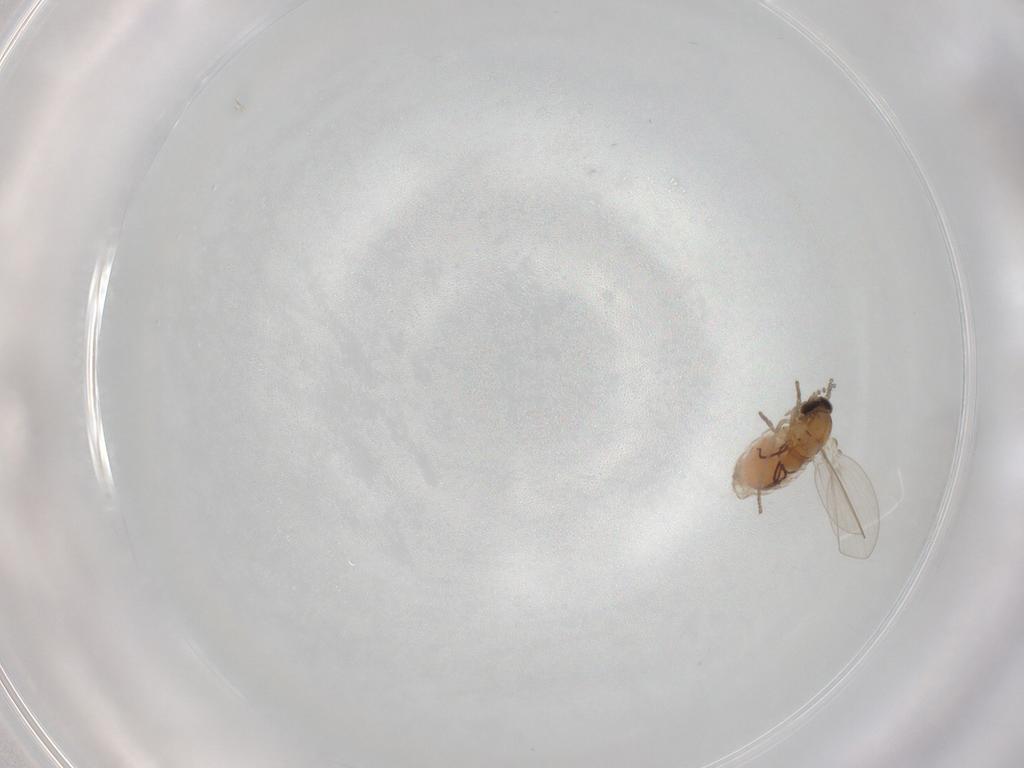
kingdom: Animalia
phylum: Arthropoda
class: Insecta
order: Diptera
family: Psychodidae
